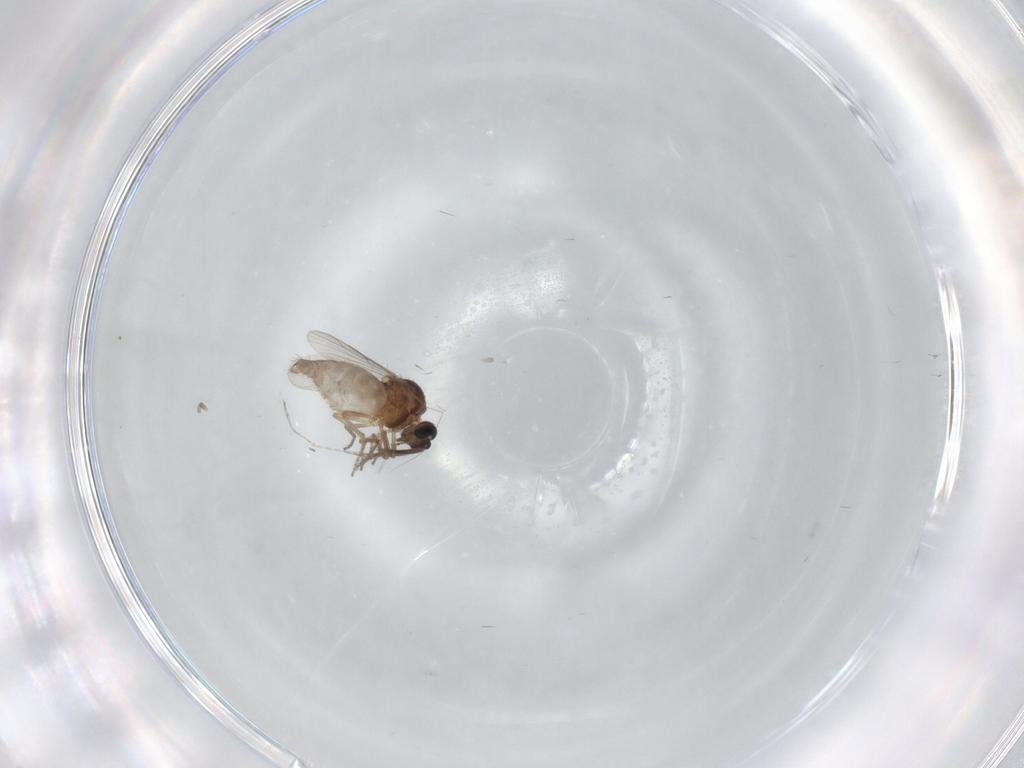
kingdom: Animalia
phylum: Arthropoda
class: Insecta
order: Diptera
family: Ceratopogonidae
